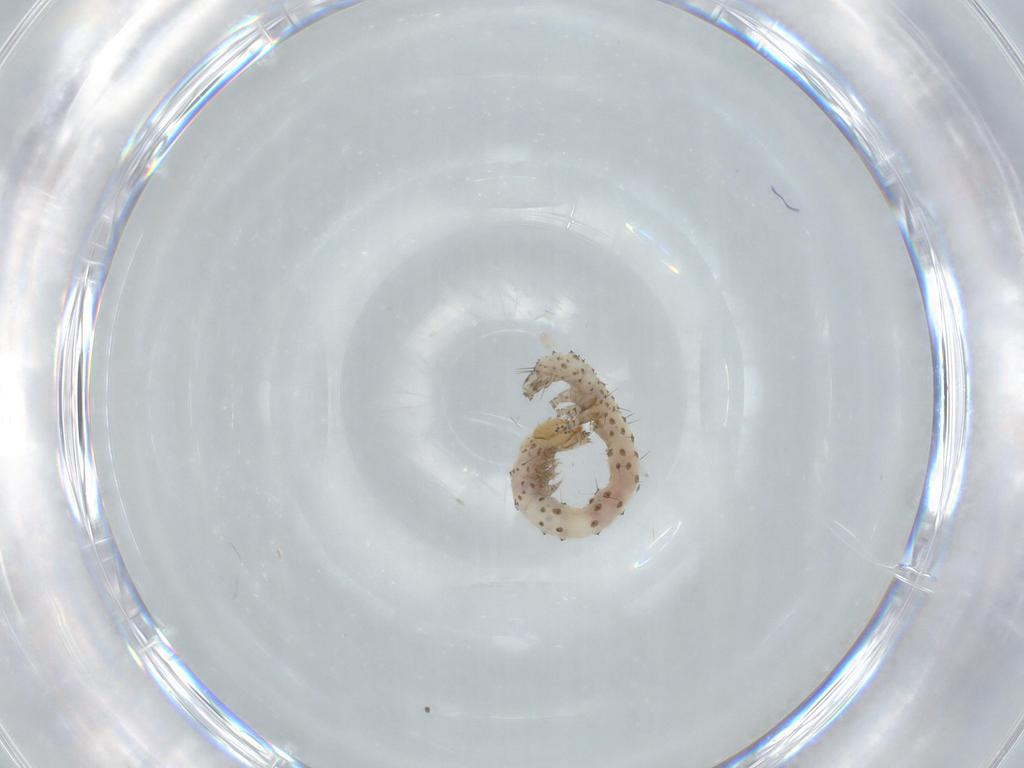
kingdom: Animalia
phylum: Arthropoda
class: Insecta
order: Lepidoptera
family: Erebidae
